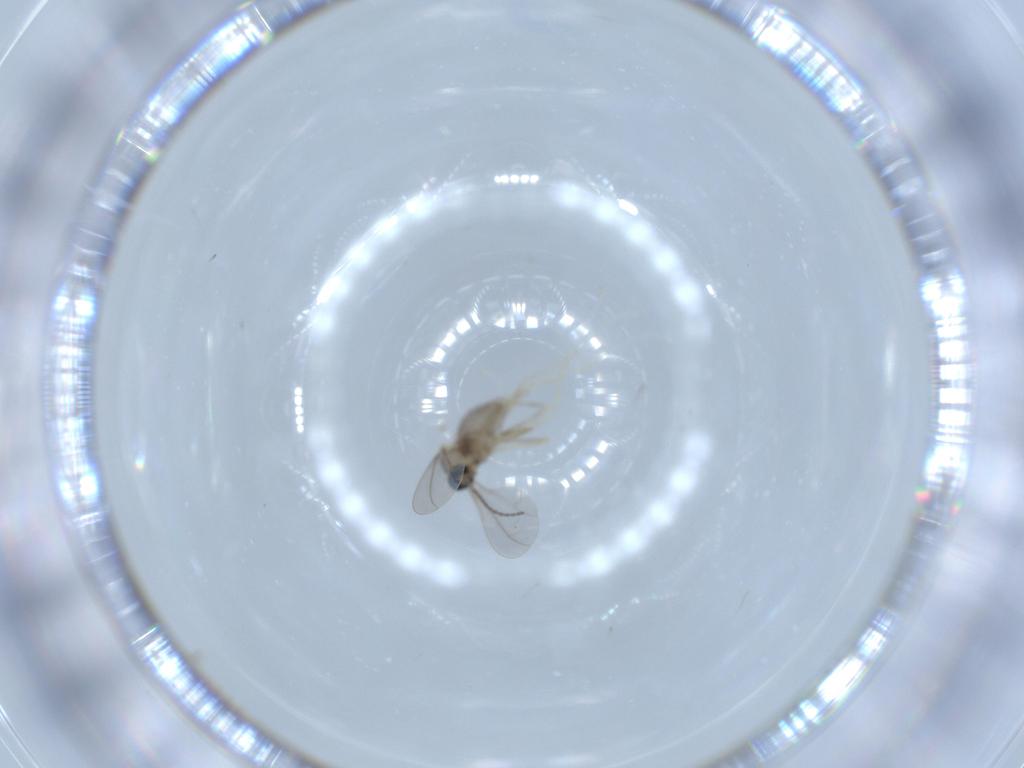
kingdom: Animalia
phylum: Arthropoda
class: Insecta
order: Diptera
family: Cecidomyiidae
